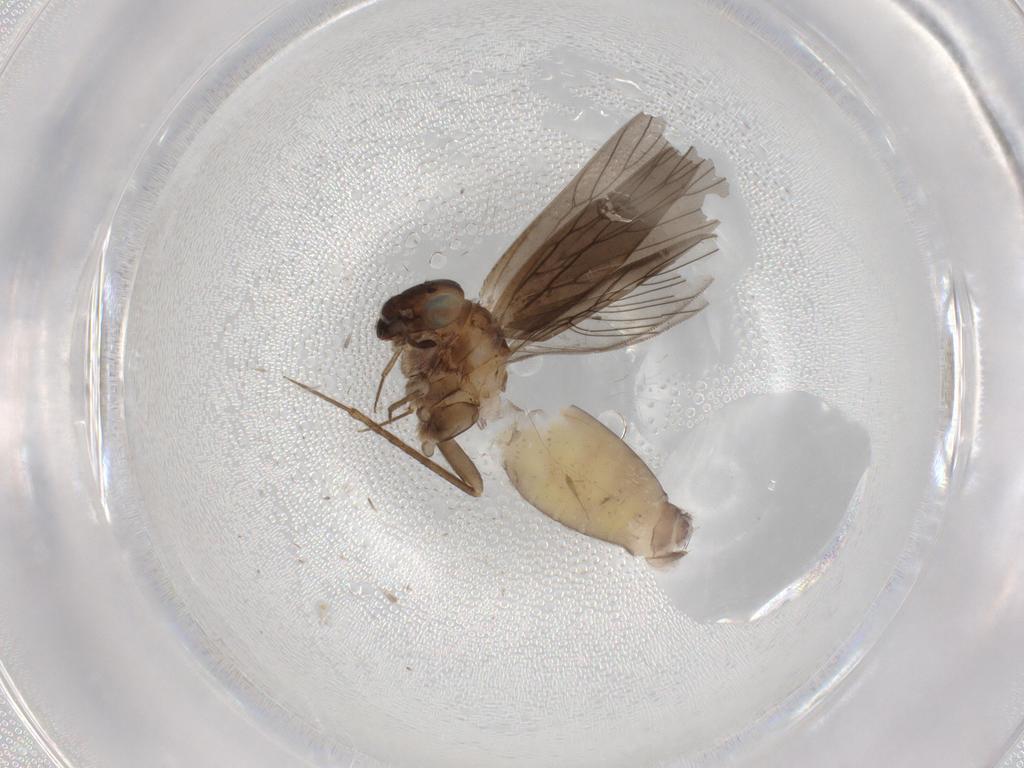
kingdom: Animalia
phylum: Arthropoda
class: Insecta
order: Psocodea
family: Lepidopsocidae
